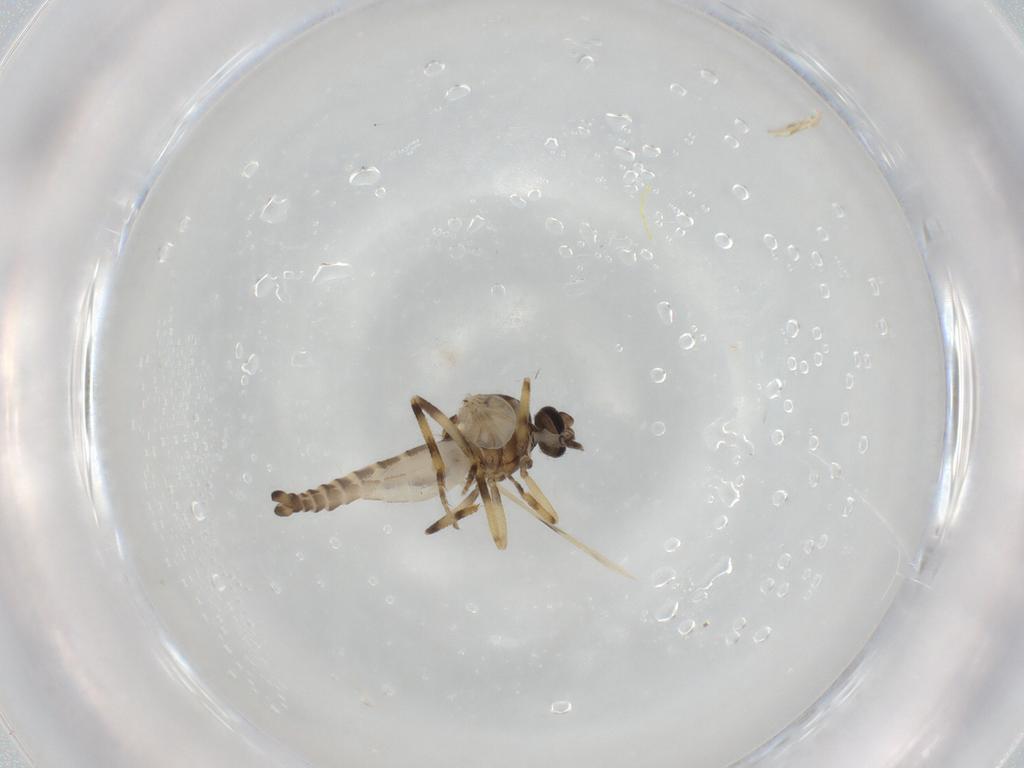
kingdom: Animalia
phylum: Arthropoda
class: Insecta
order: Diptera
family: Ceratopogonidae
